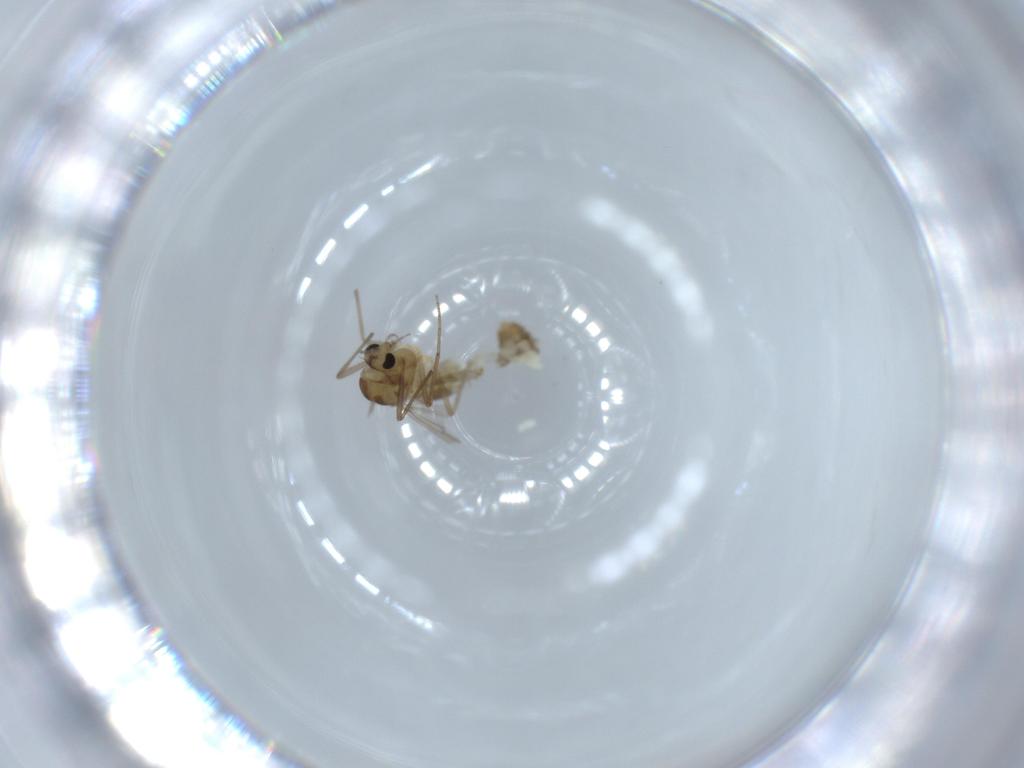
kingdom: Animalia
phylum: Arthropoda
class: Insecta
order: Diptera
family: Chironomidae
